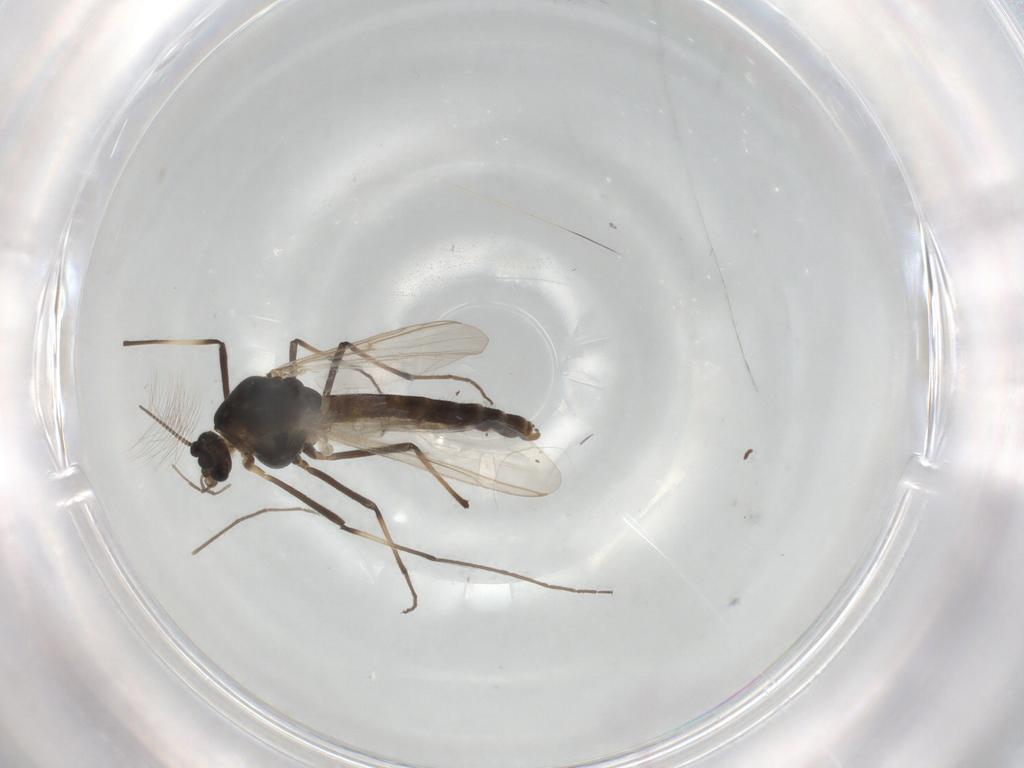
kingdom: Animalia
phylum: Arthropoda
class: Insecta
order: Diptera
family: Chironomidae
